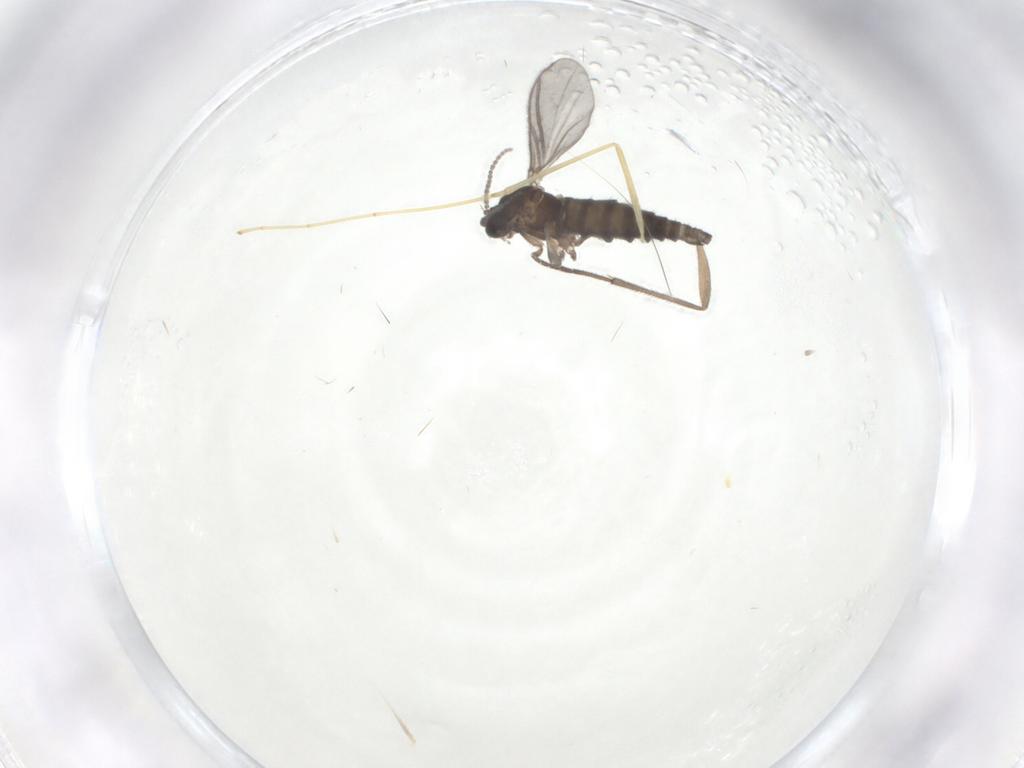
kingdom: Animalia
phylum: Arthropoda
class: Insecta
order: Diptera
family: Sciaridae
